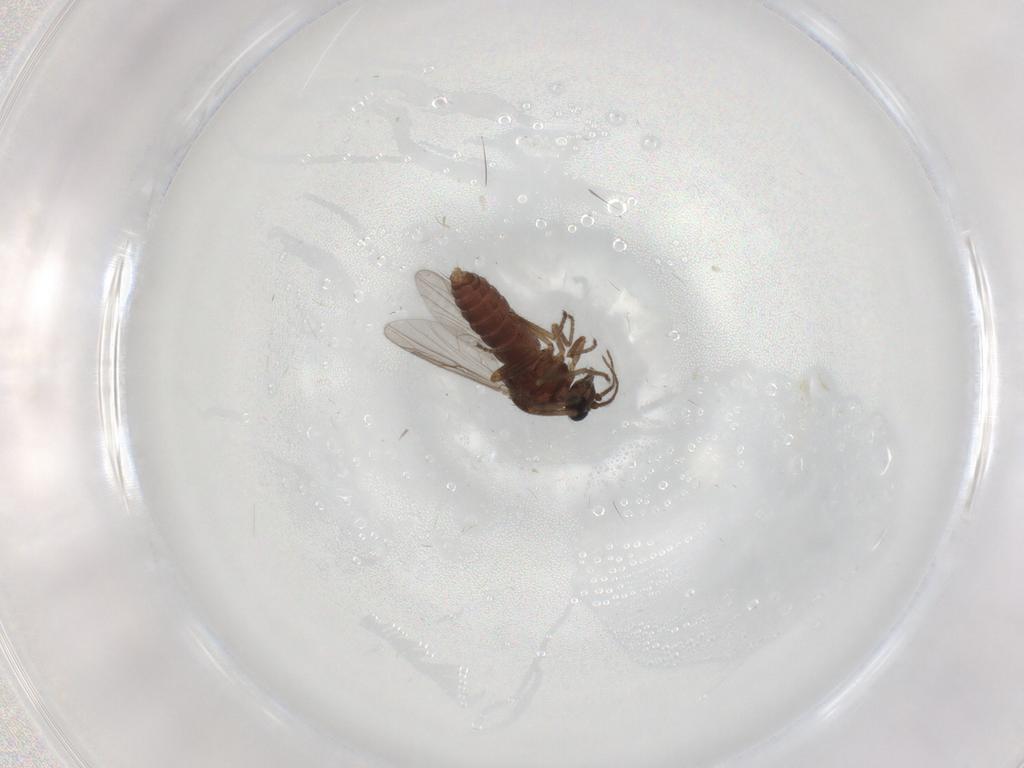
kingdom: Animalia
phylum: Arthropoda
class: Insecta
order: Diptera
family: Ceratopogonidae
